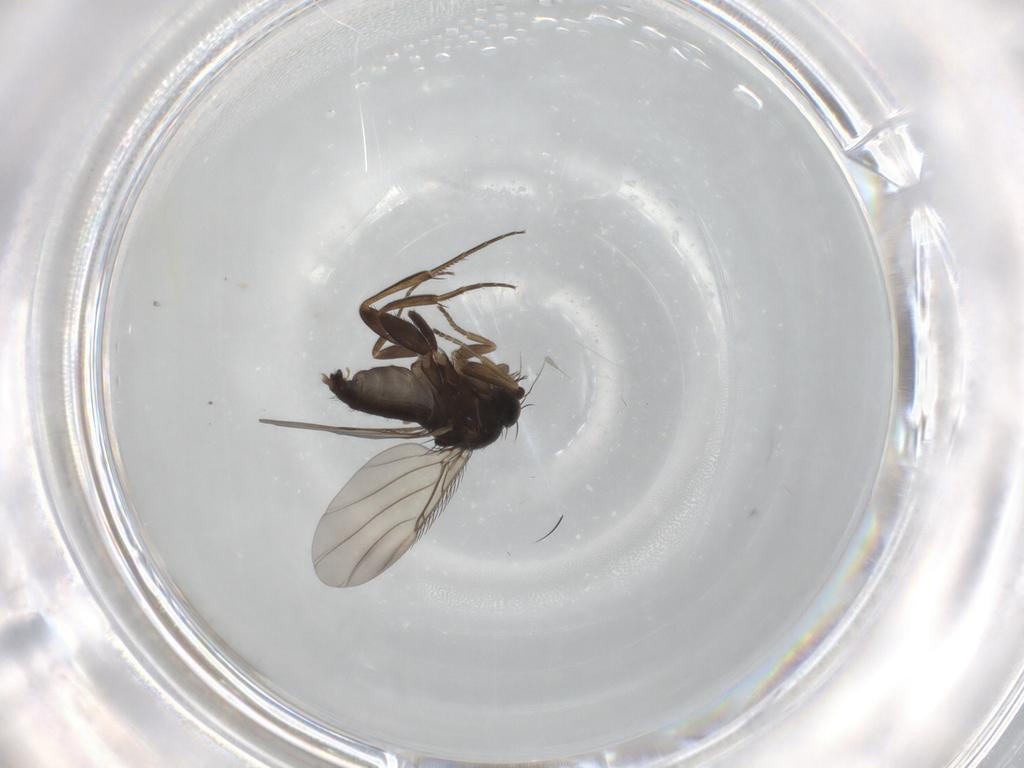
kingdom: Animalia
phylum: Arthropoda
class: Insecta
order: Diptera
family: Phoridae
